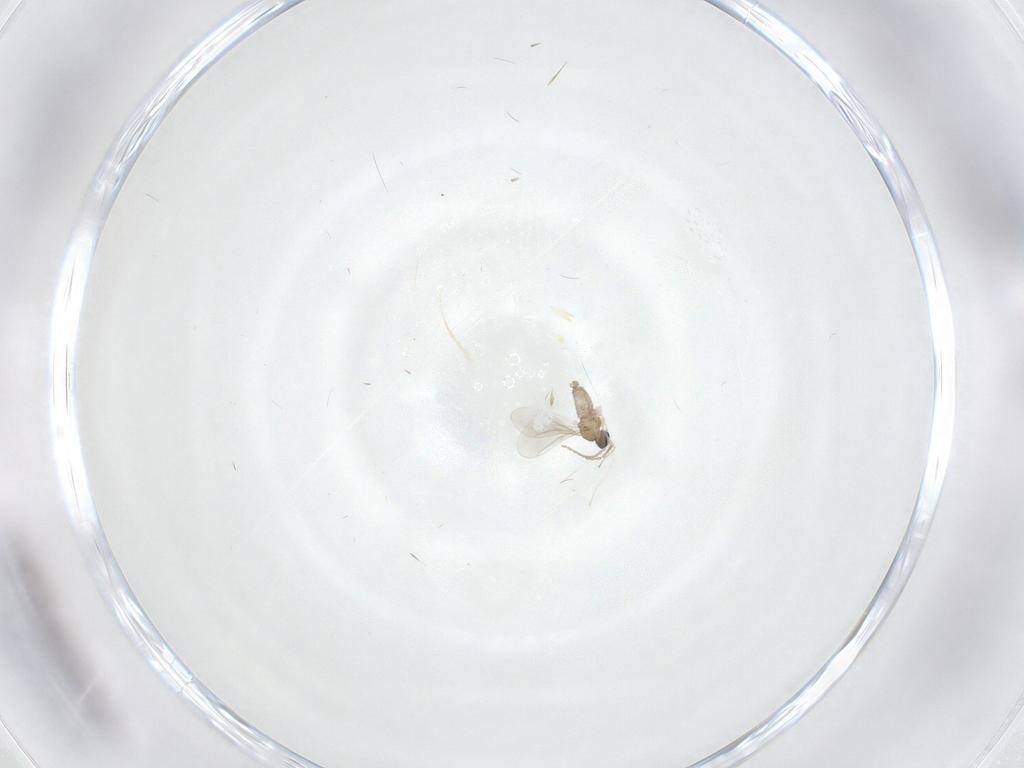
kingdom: Animalia
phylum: Arthropoda
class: Insecta
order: Diptera
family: Cecidomyiidae
